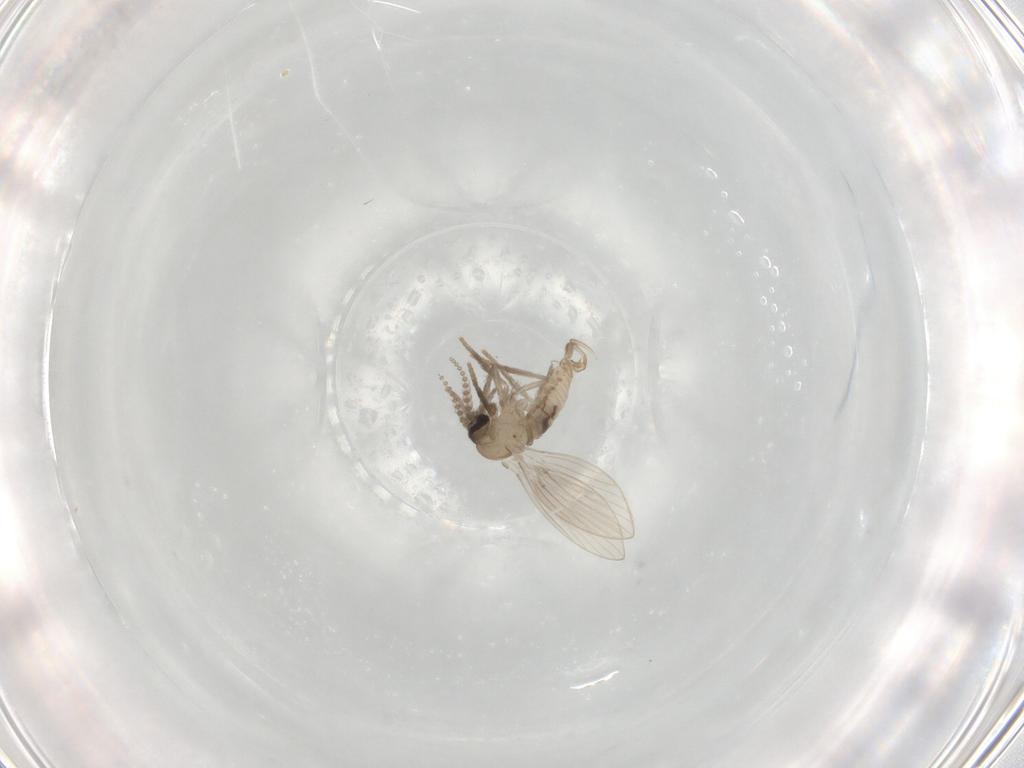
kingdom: Animalia
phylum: Arthropoda
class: Insecta
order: Diptera
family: Psychodidae
